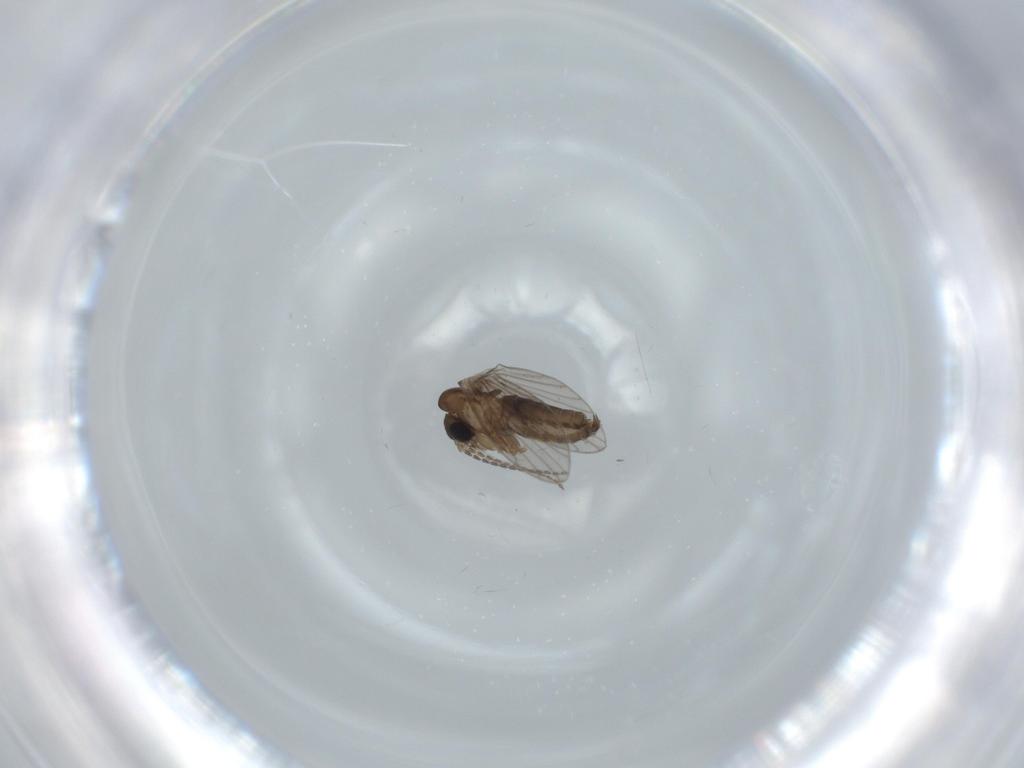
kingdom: Animalia
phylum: Arthropoda
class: Insecta
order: Diptera
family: Psychodidae
